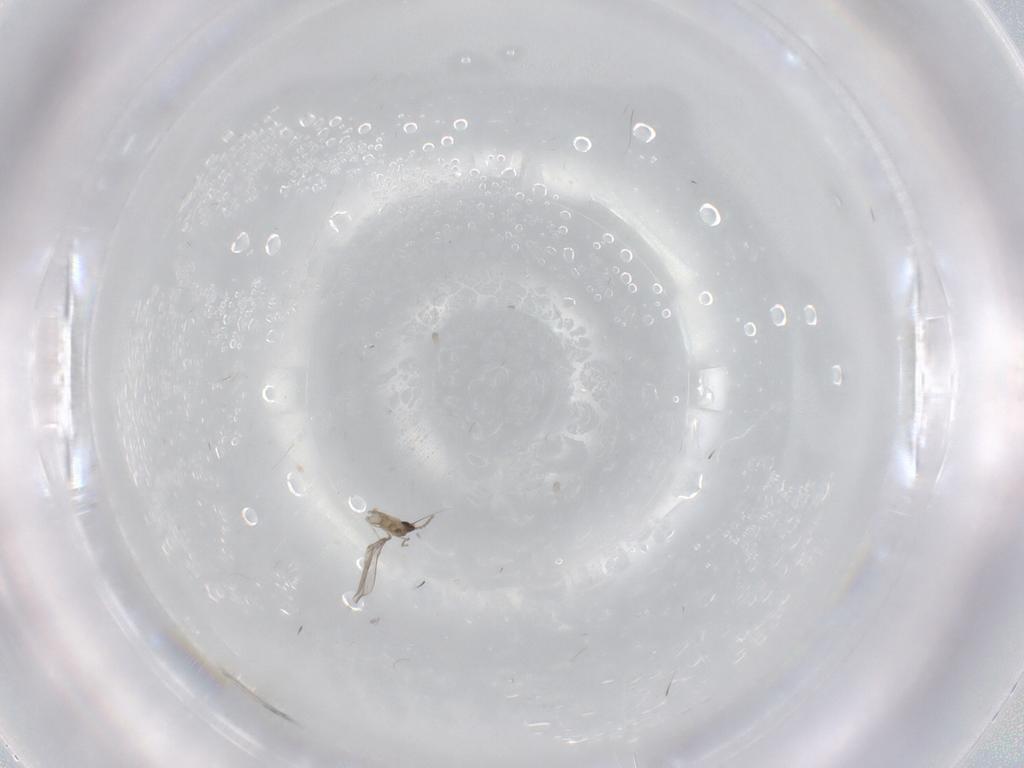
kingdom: Animalia
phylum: Arthropoda
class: Insecta
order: Diptera
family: Cecidomyiidae
